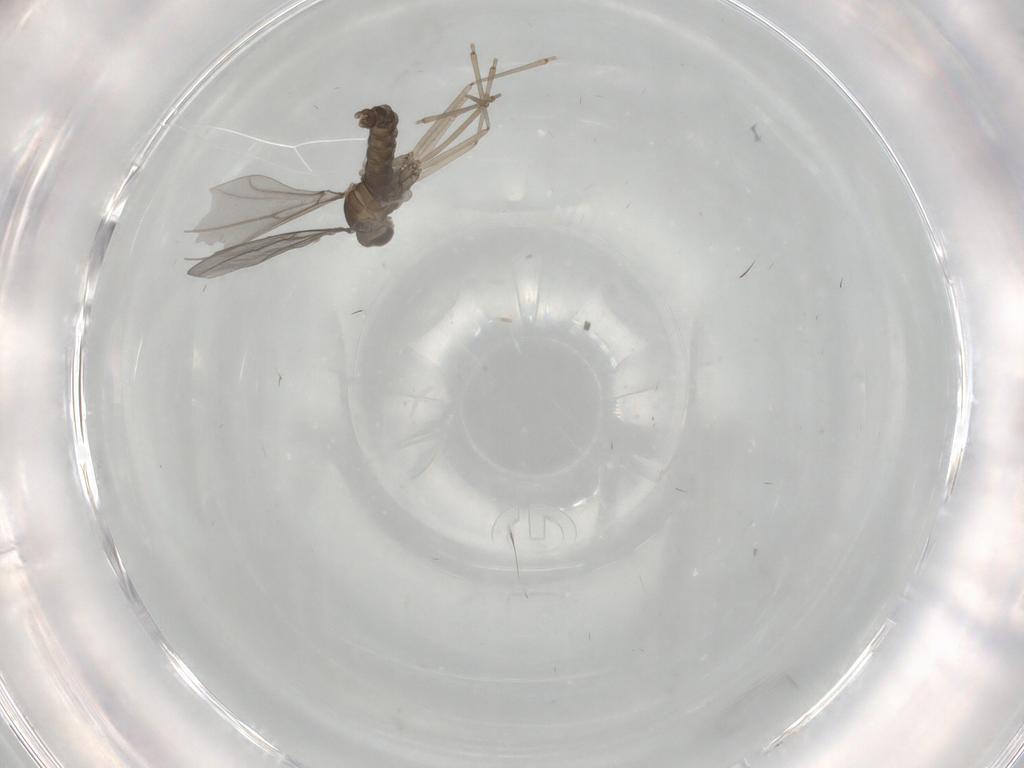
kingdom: Animalia
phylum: Arthropoda
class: Insecta
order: Diptera
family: Cecidomyiidae
